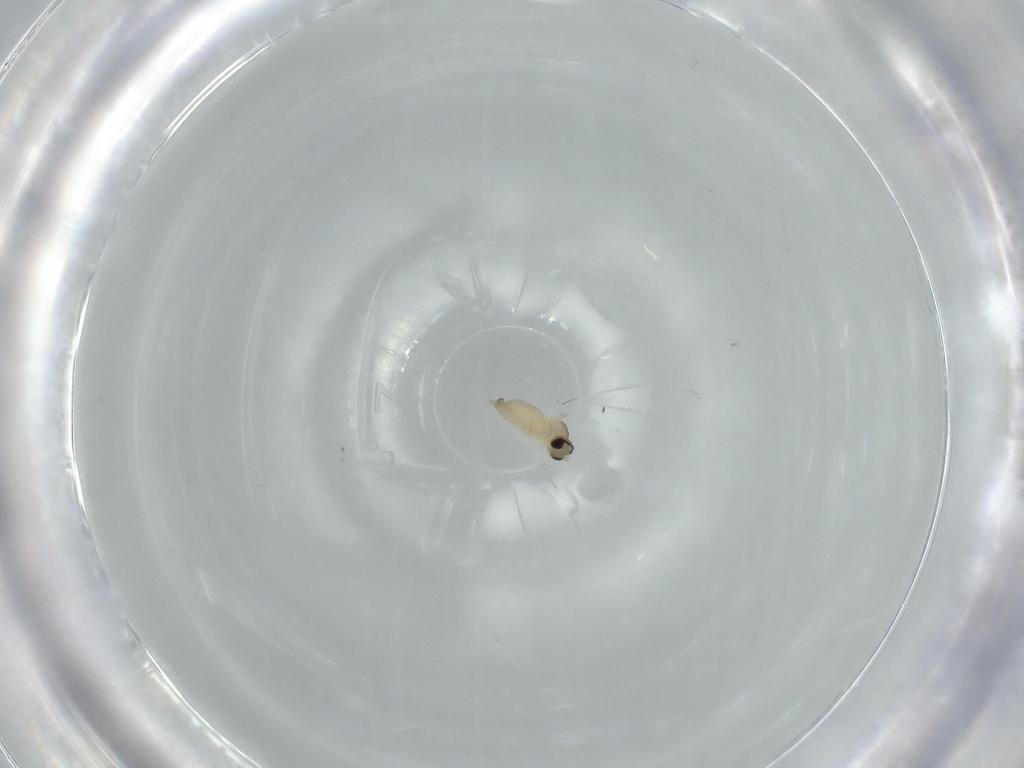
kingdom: Animalia
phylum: Arthropoda
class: Insecta
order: Diptera
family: Cecidomyiidae
